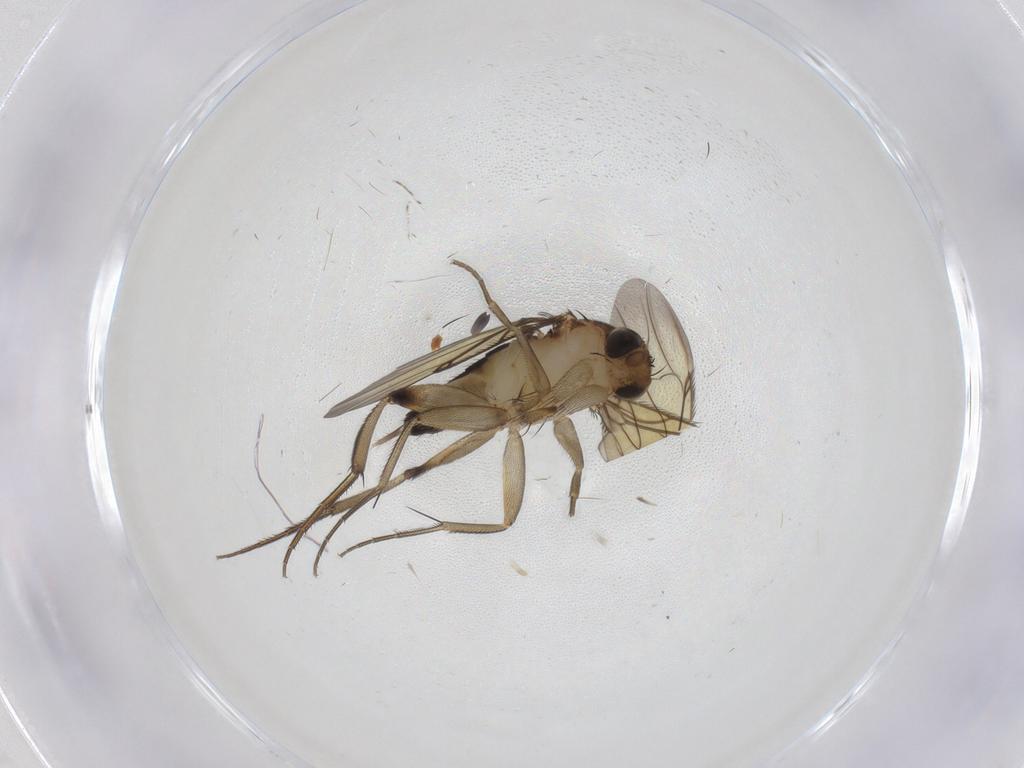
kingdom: Animalia
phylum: Arthropoda
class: Insecta
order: Diptera
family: Phoridae
